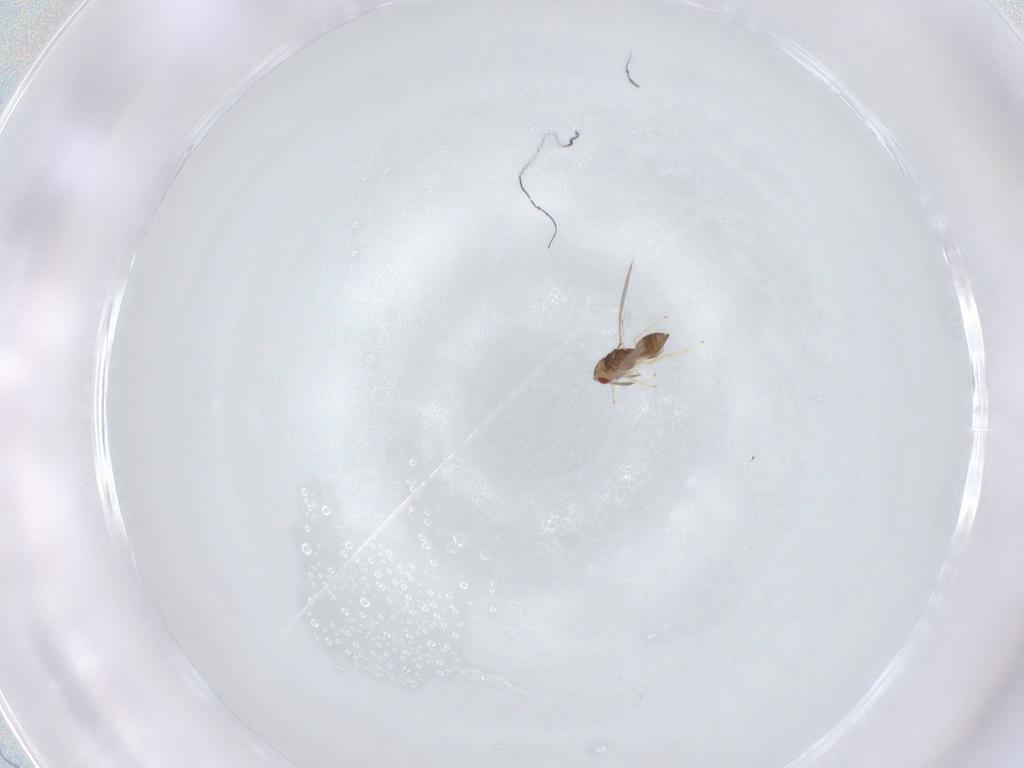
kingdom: Animalia
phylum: Arthropoda
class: Insecta
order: Hymenoptera
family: Eulophidae
